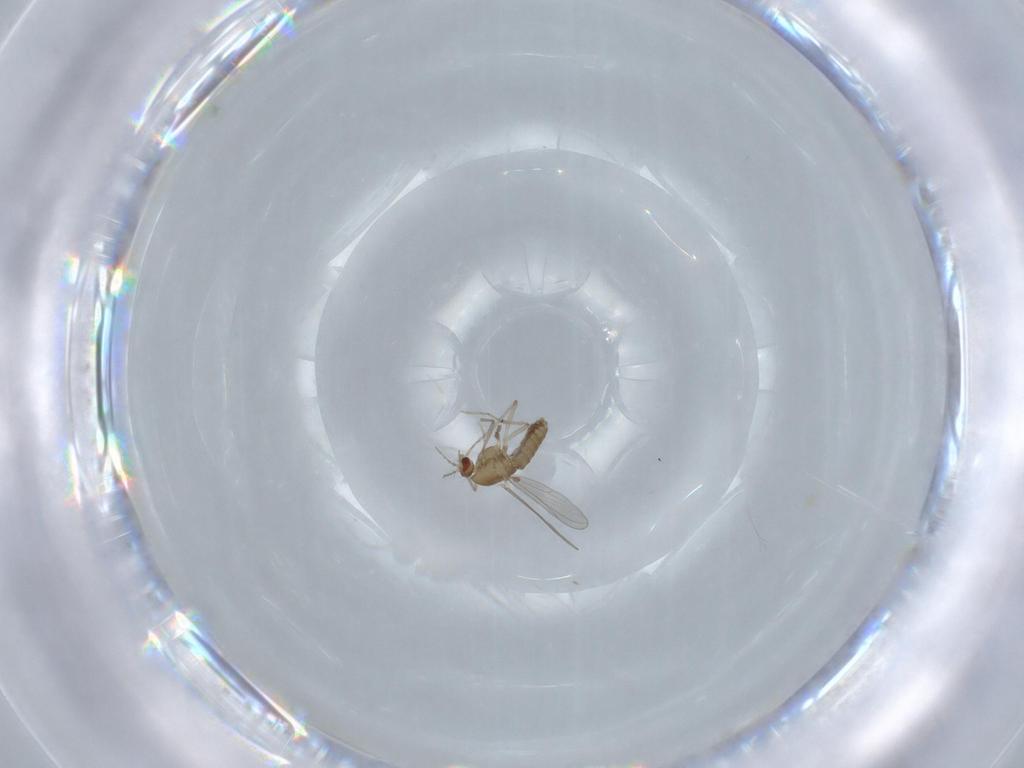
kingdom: Animalia
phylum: Arthropoda
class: Insecta
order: Diptera
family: Chironomidae
